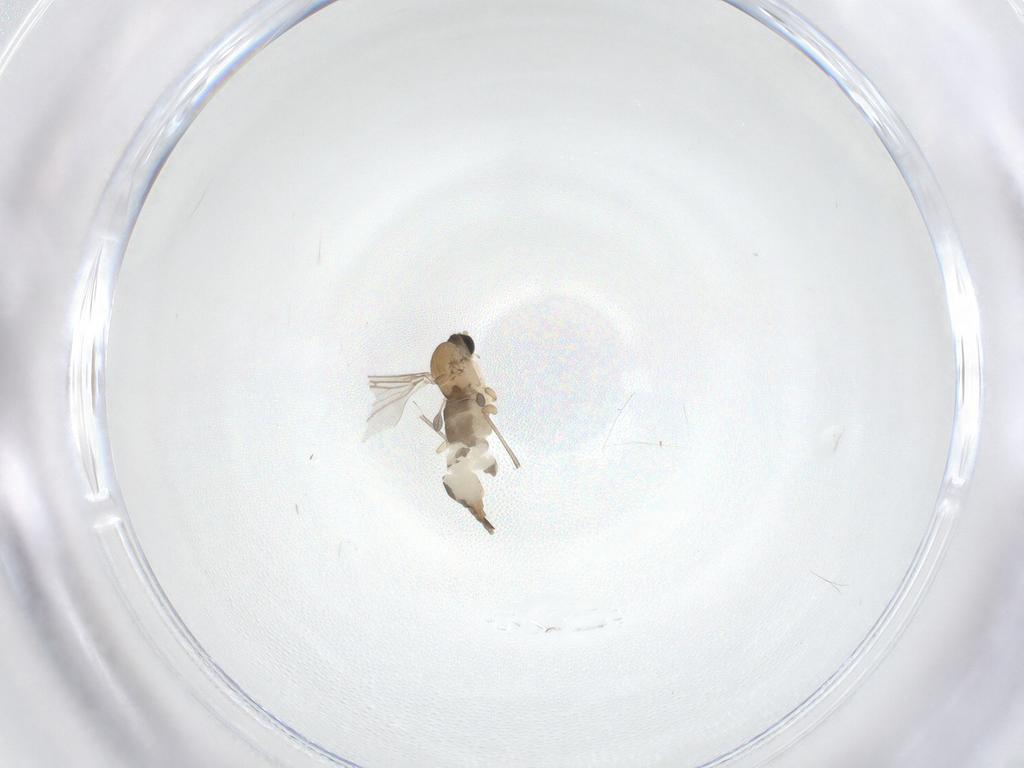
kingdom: Animalia
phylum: Arthropoda
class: Insecta
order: Diptera
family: Sciaridae
